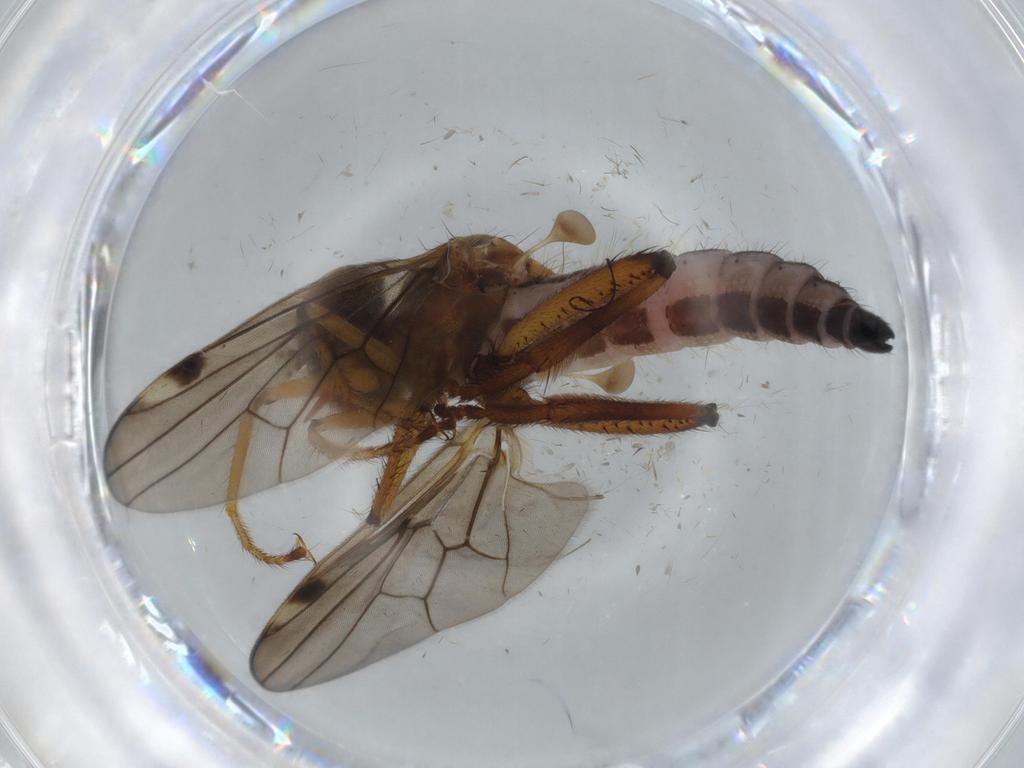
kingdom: Animalia
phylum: Arthropoda
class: Insecta
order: Diptera
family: Hybotidae
